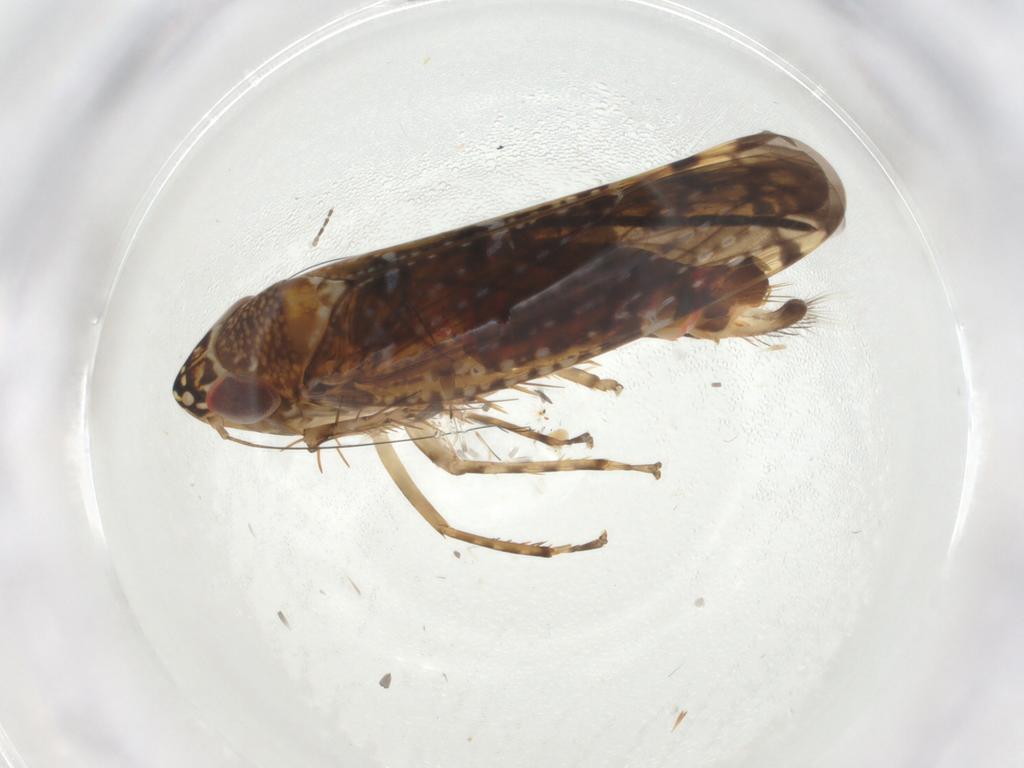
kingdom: Animalia
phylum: Arthropoda
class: Insecta
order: Hemiptera
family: Cicadellidae
